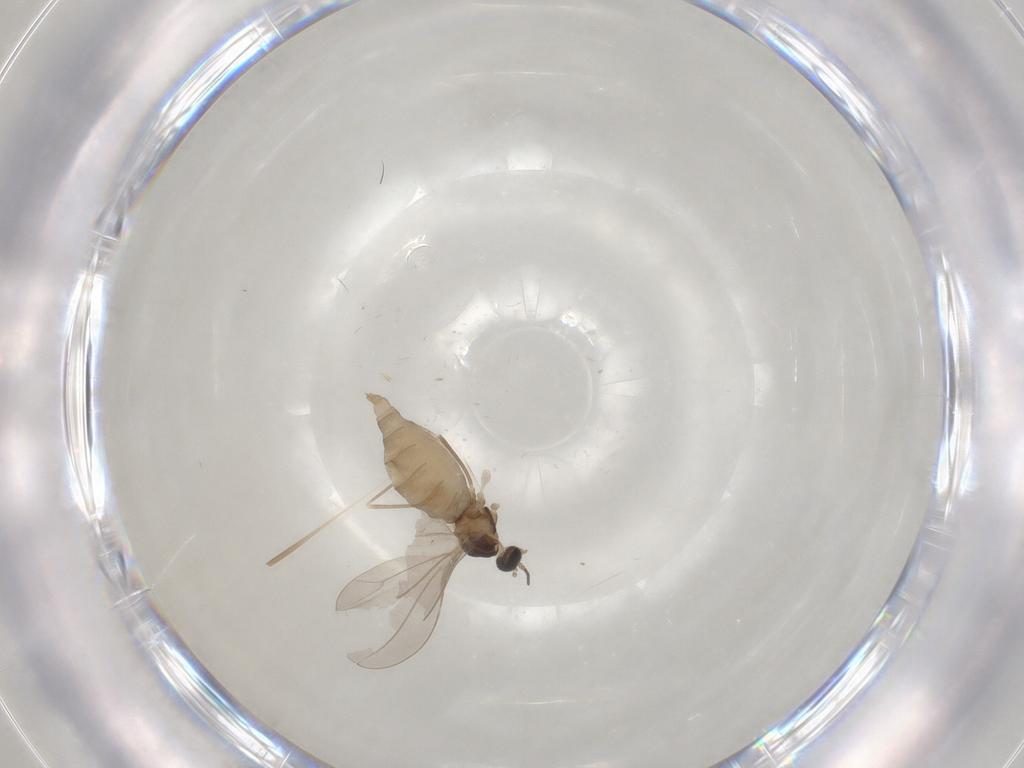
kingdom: Animalia
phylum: Arthropoda
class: Insecta
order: Diptera
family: Cecidomyiidae
